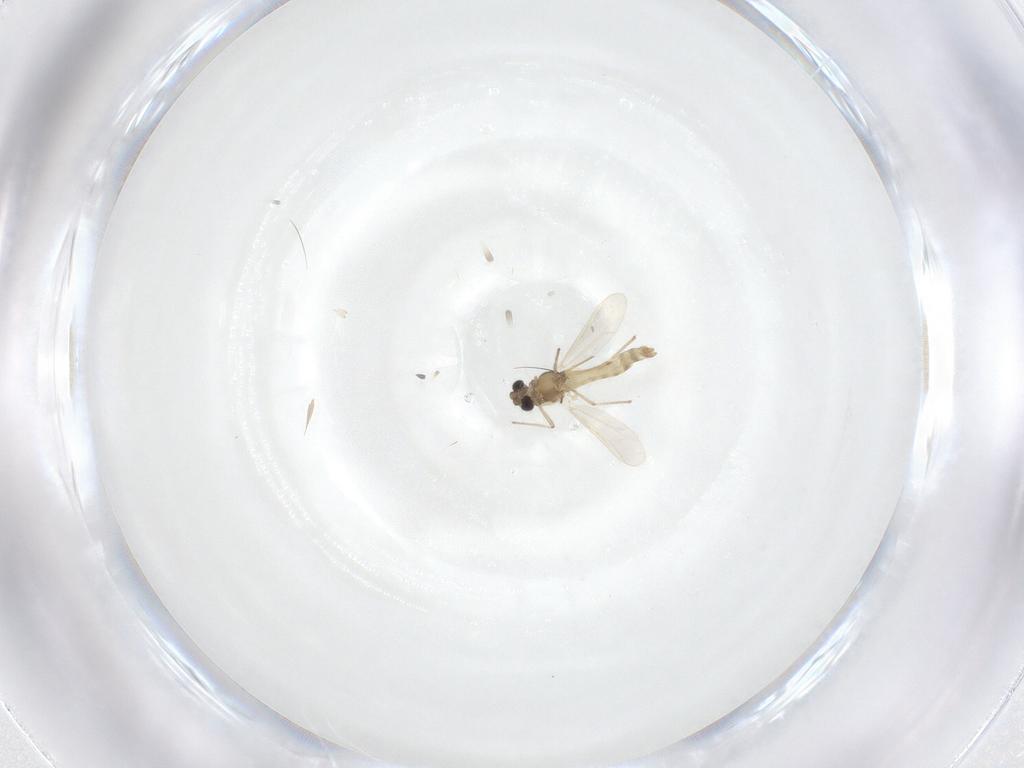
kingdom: Animalia
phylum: Arthropoda
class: Insecta
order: Diptera
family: Chironomidae
